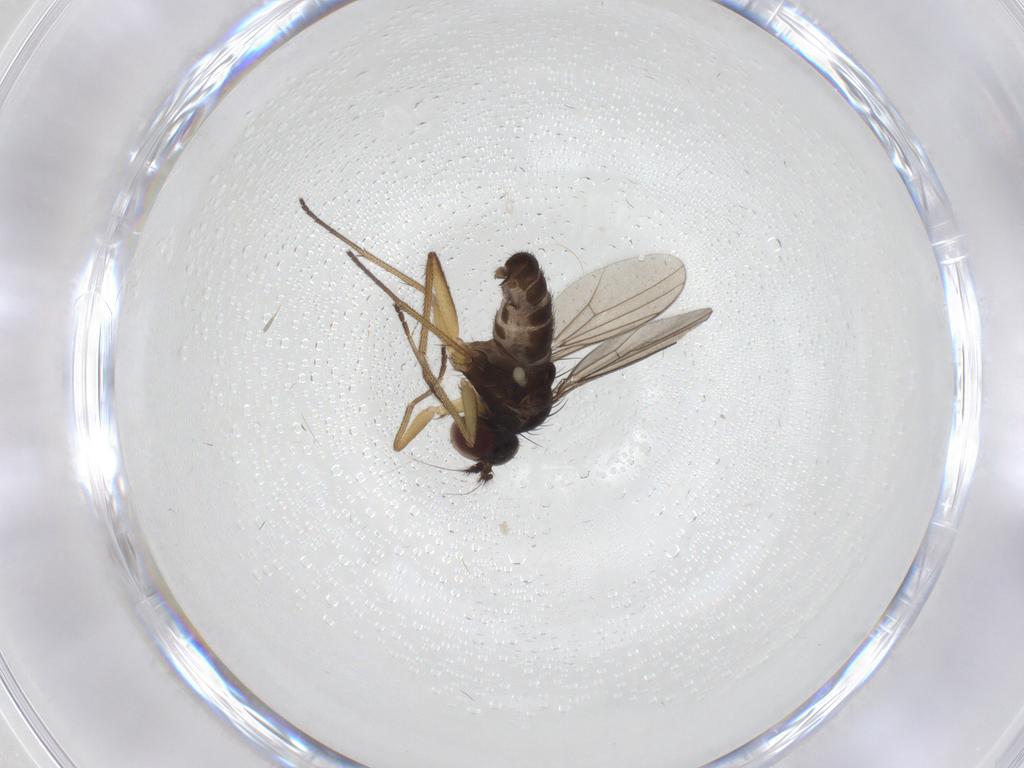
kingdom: Animalia
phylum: Arthropoda
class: Insecta
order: Diptera
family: Dolichopodidae
